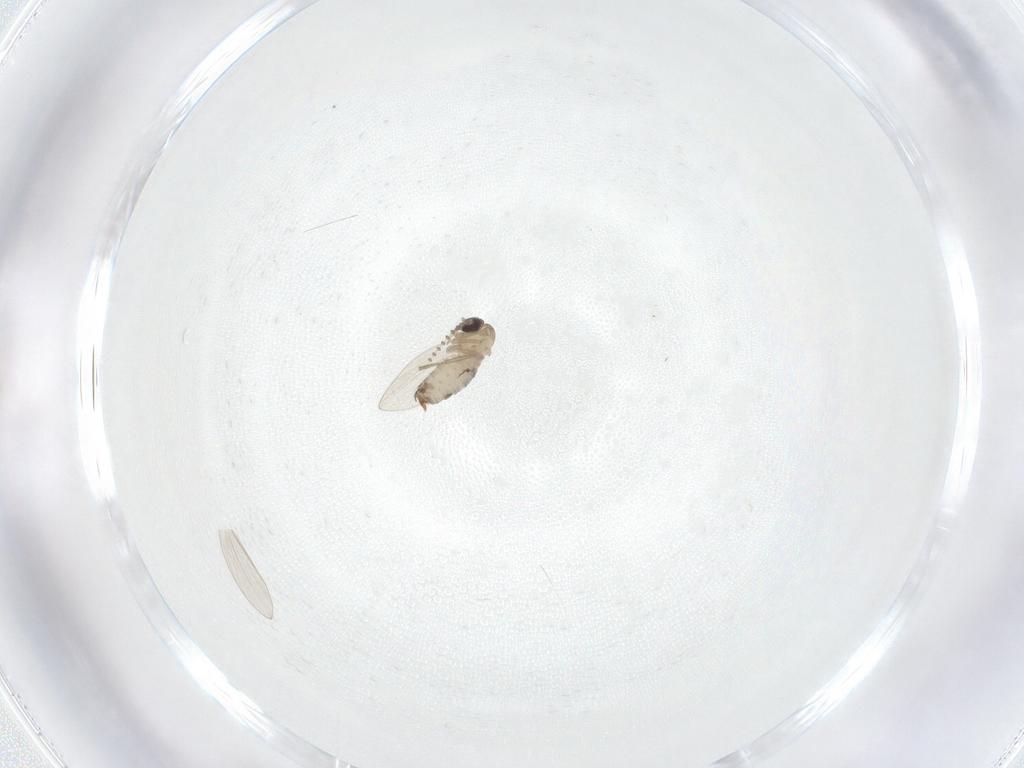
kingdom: Animalia
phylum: Arthropoda
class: Insecta
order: Diptera
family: Psychodidae
